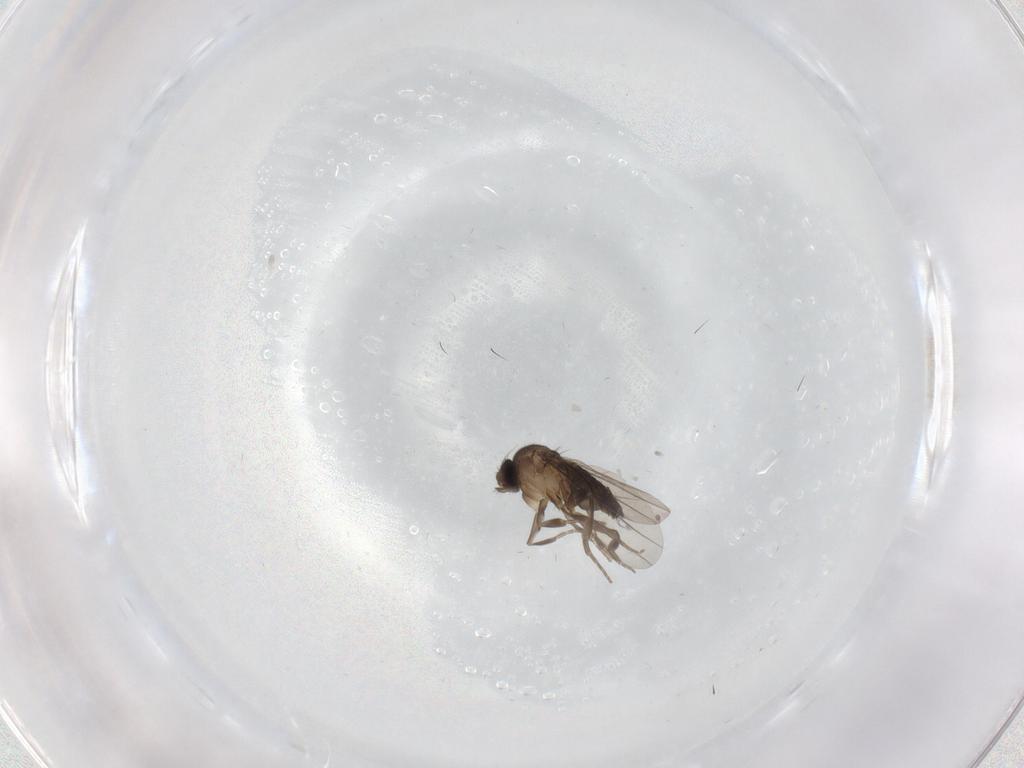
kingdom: Animalia
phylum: Arthropoda
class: Insecta
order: Diptera
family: Phoridae
